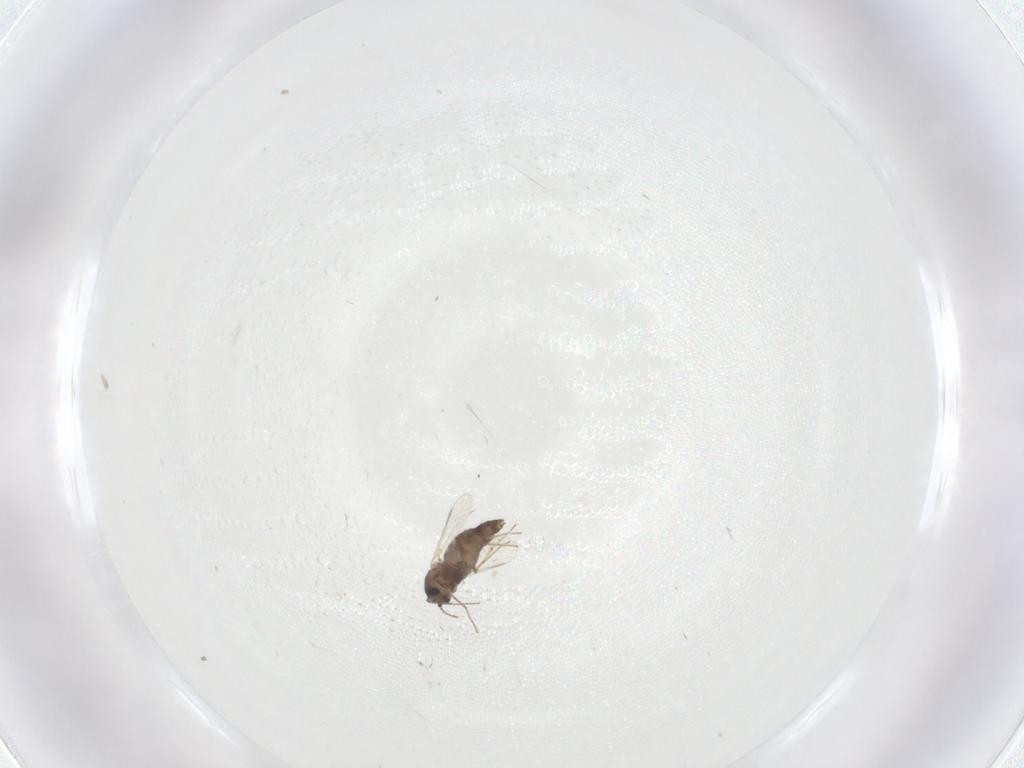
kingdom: Animalia
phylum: Arthropoda
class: Insecta
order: Diptera
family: Chironomidae
